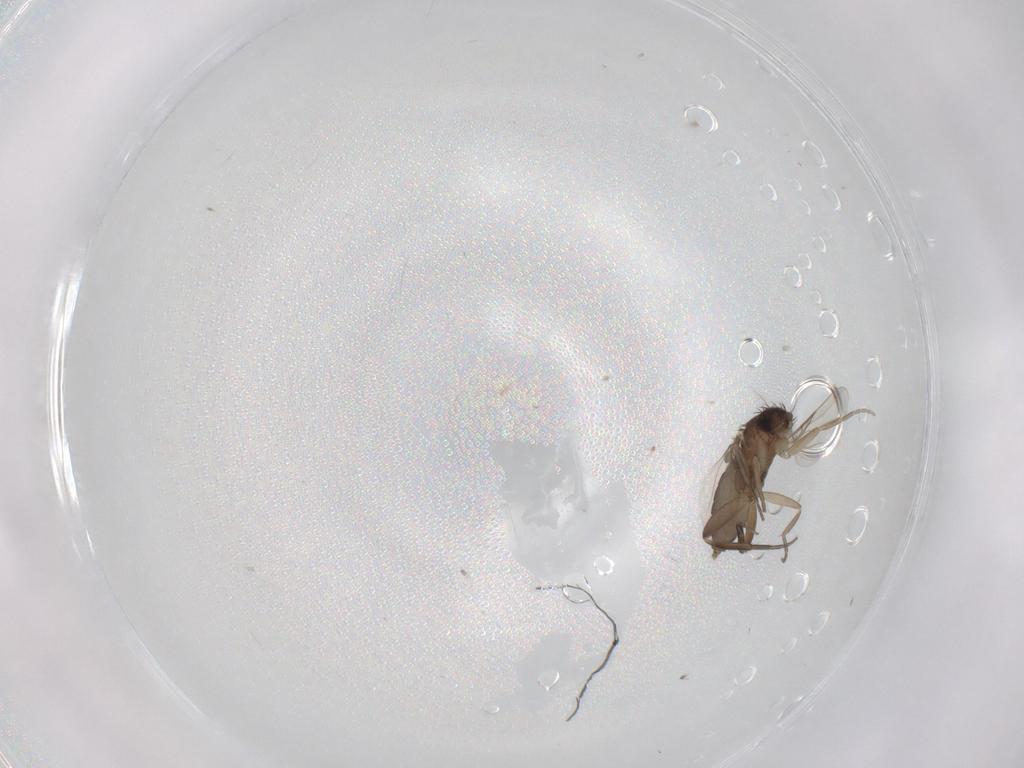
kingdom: Animalia
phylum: Arthropoda
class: Insecta
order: Diptera
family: Phoridae
